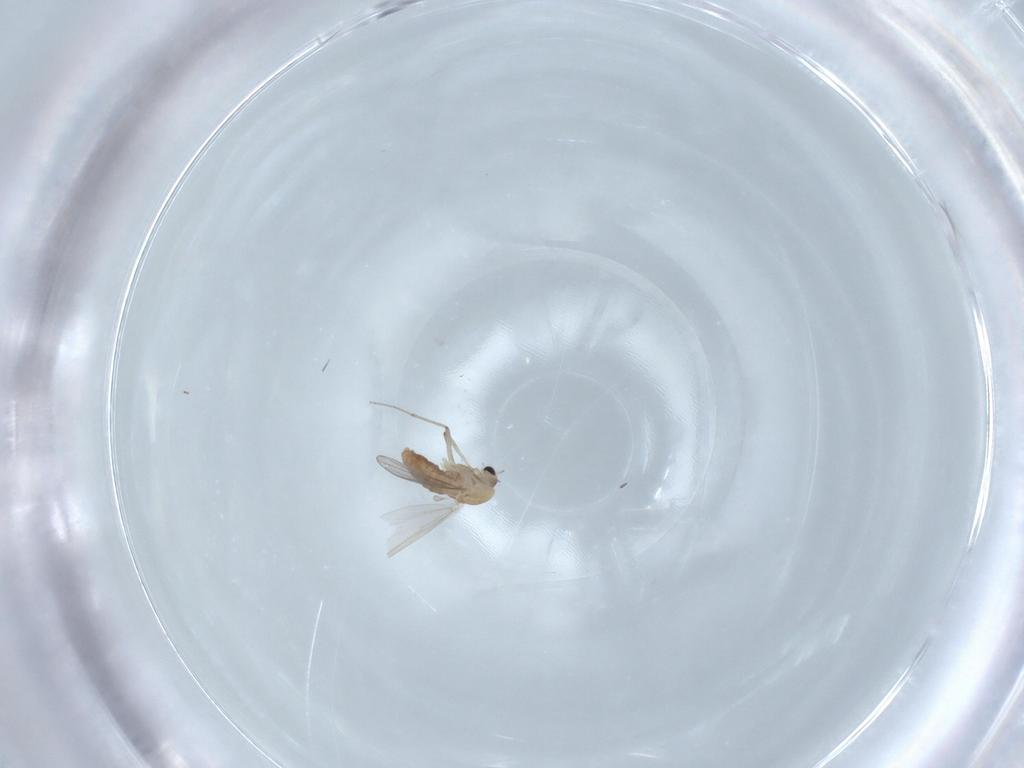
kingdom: Animalia
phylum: Arthropoda
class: Insecta
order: Diptera
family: Chironomidae
